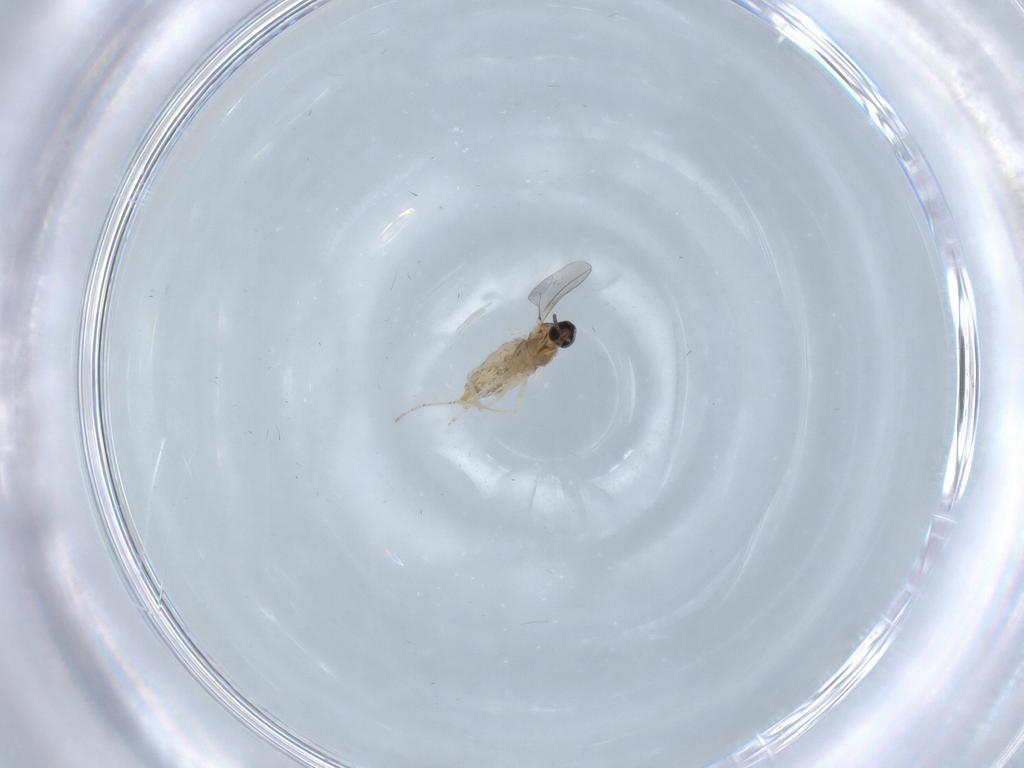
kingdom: Animalia
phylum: Arthropoda
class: Insecta
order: Diptera
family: Cecidomyiidae
